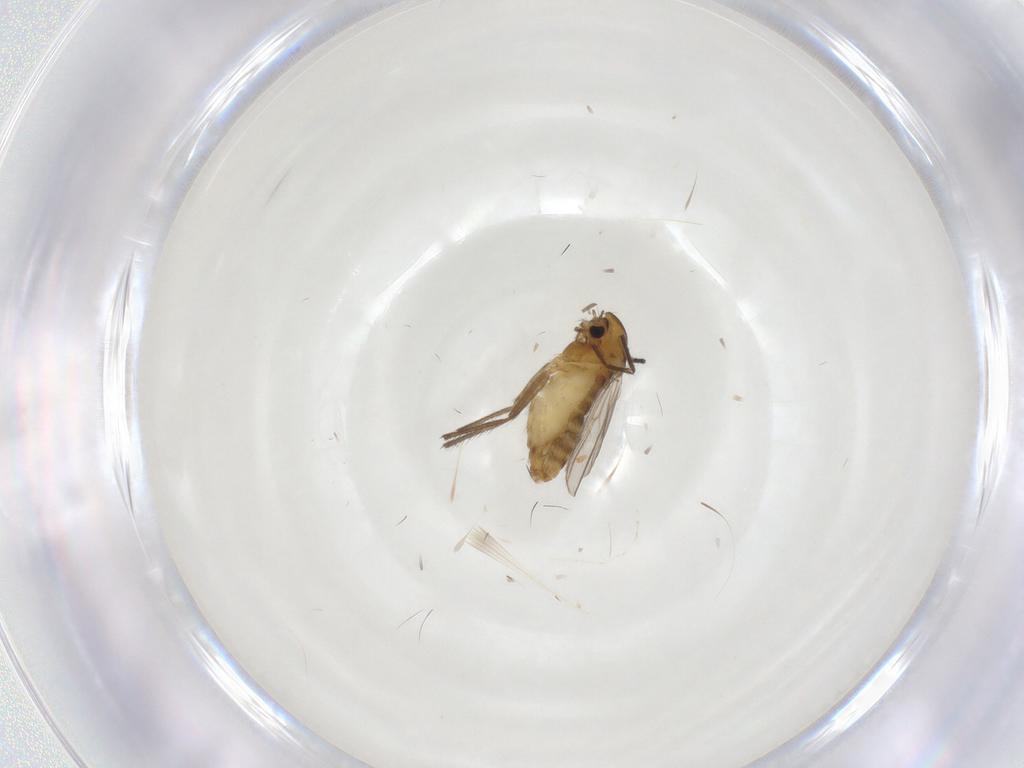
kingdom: Animalia
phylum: Arthropoda
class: Insecta
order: Diptera
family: Chironomidae
